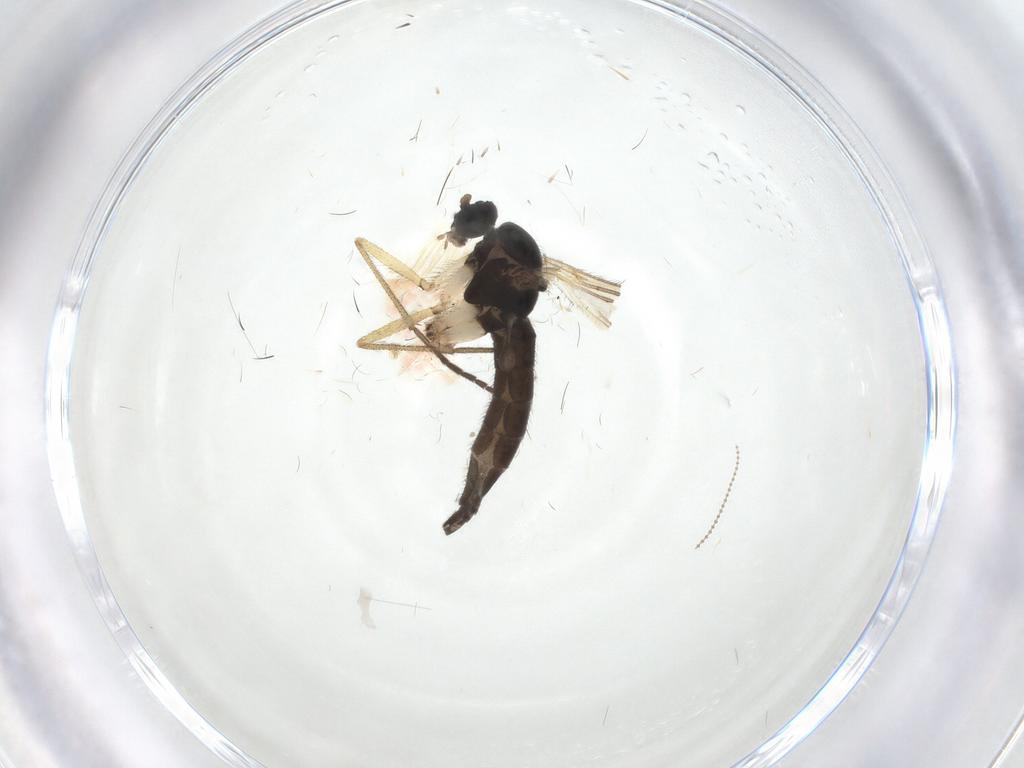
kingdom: Animalia
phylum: Arthropoda
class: Insecta
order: Diptera
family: Sciaridae
